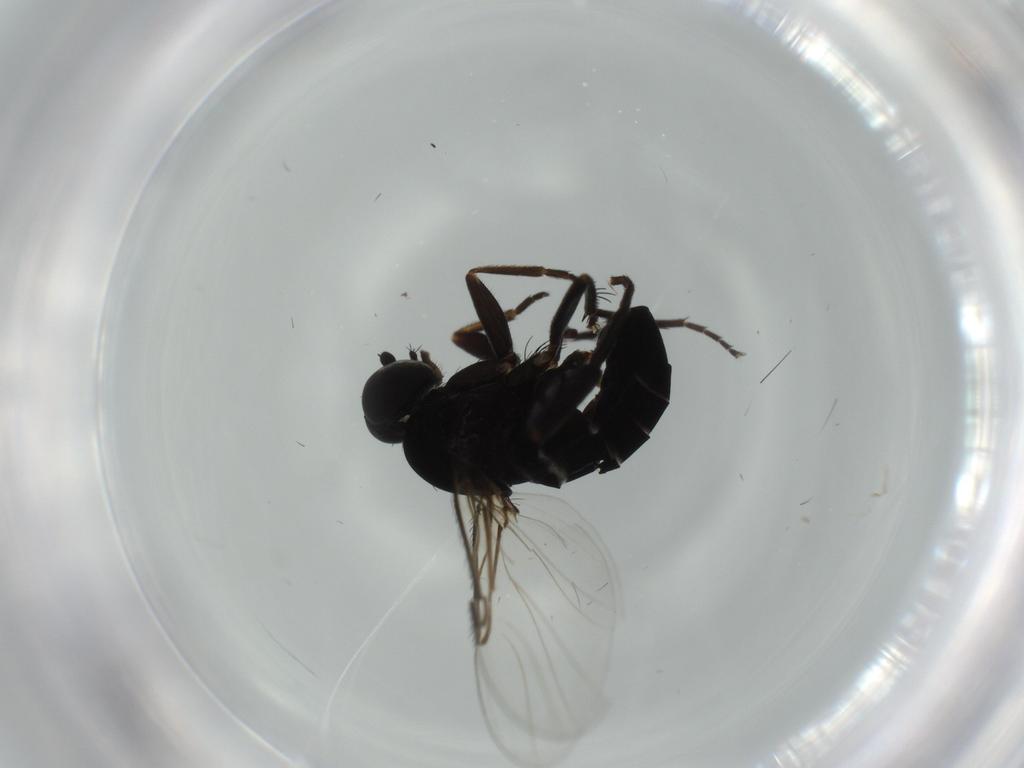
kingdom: Animalia
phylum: Arthropoda
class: Insecta
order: Diptera
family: Phoridae
